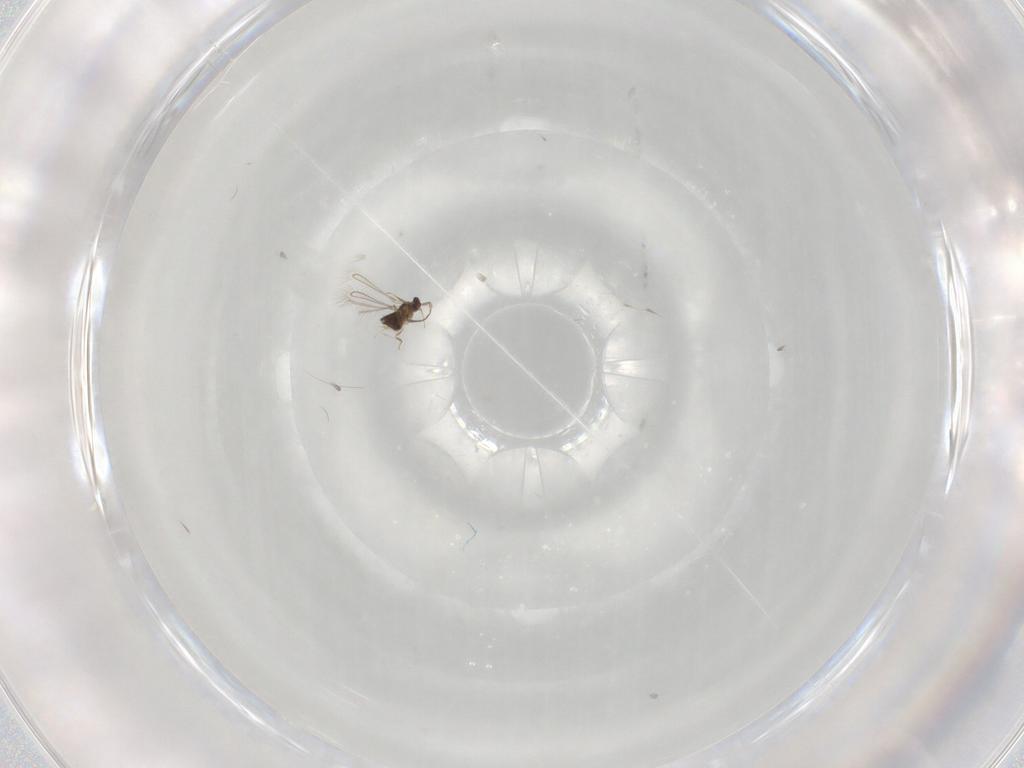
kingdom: Animalia
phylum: Arthropoda
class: Insecta
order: Hymenoptera
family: Mymaridae
